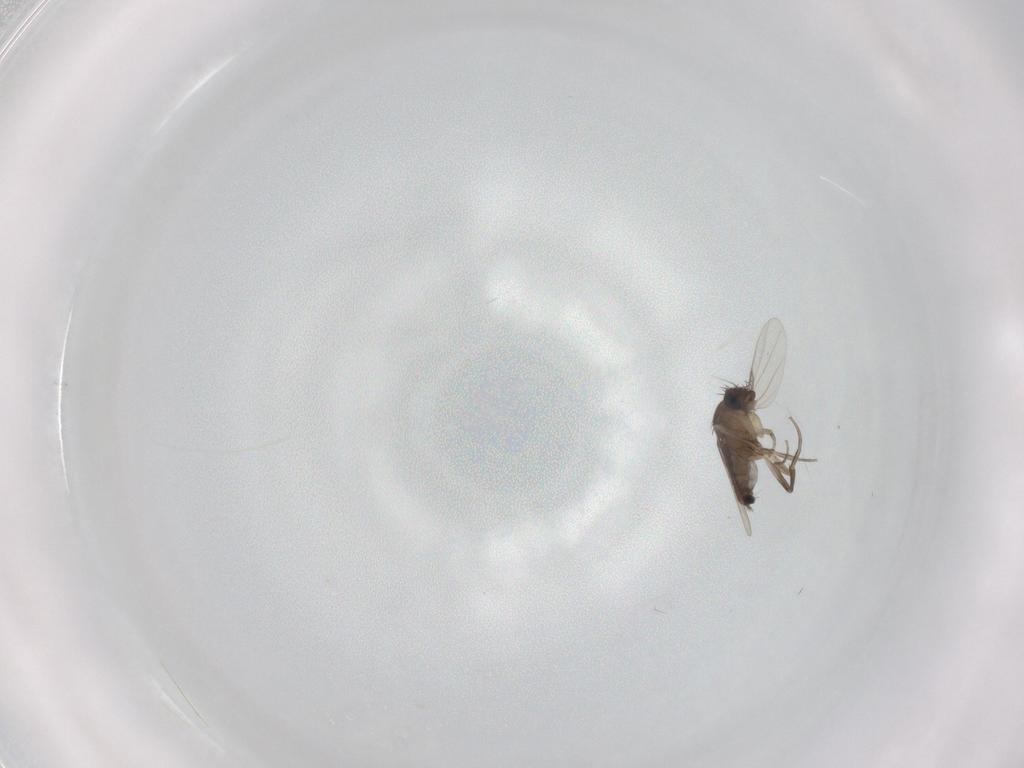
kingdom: Animalia
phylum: Arthropoda
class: Insecta
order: Diptera
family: Phoridae
